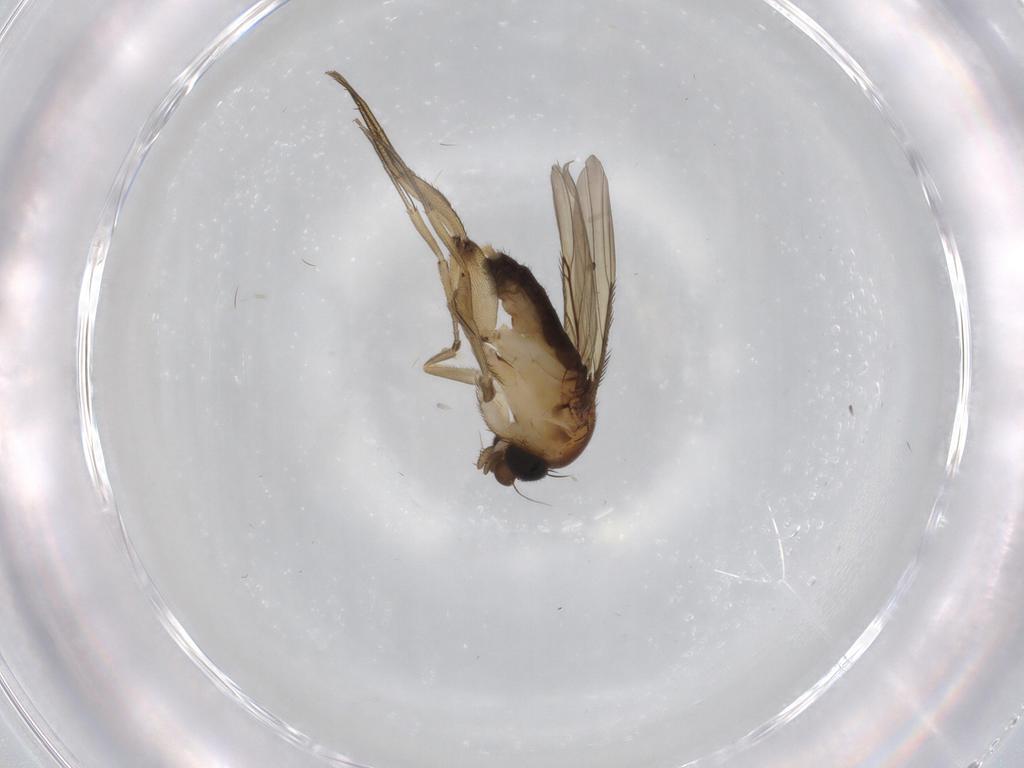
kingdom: Animalia
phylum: Arthropoda
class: Insecta
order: Diptera
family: Phoridae
